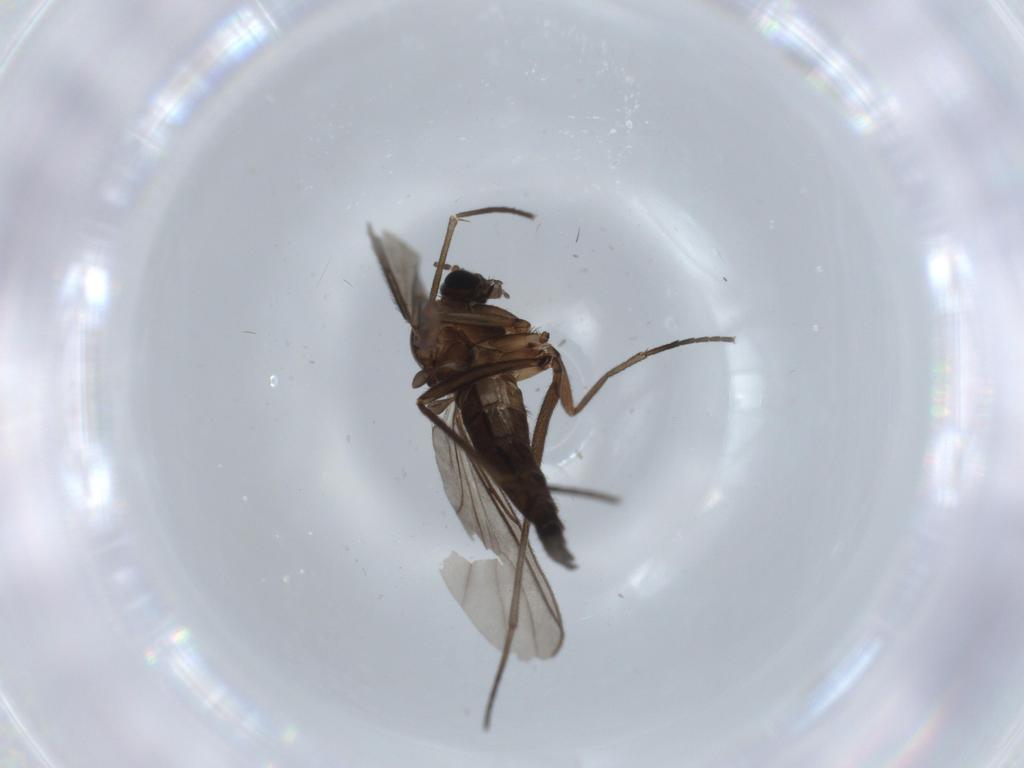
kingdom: Animalia
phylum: Arthropoda
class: Insecta
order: Diptera
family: Sciaridae
